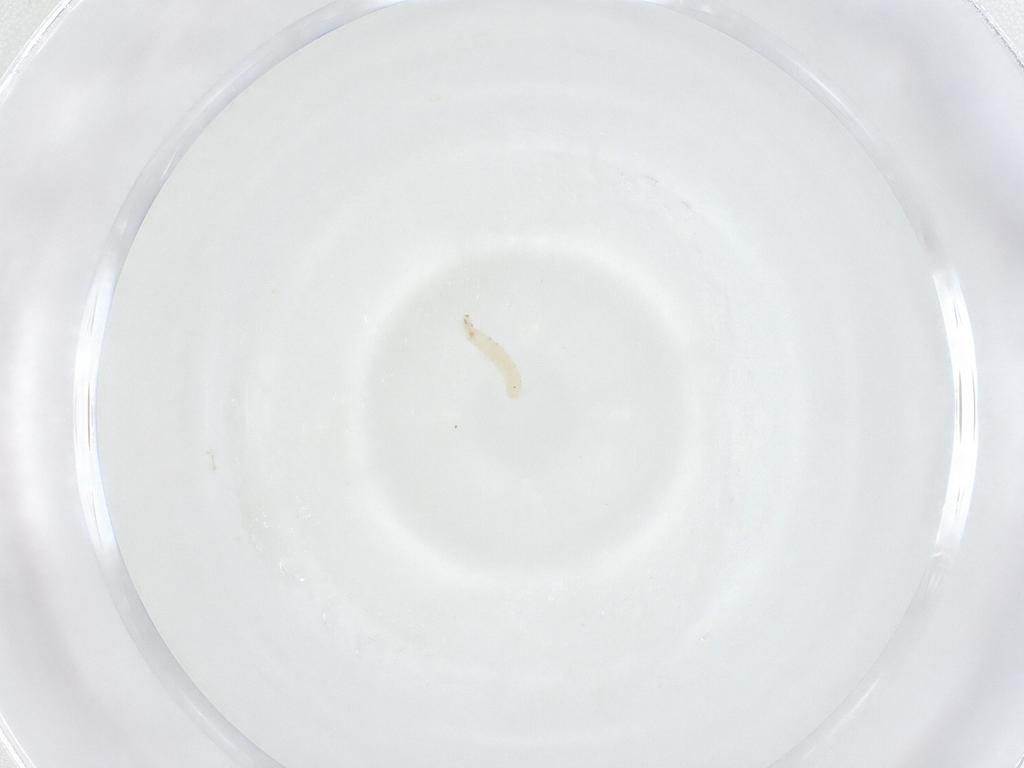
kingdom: Animalia
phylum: Arthropoda
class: Insecta
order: Diptera
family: Sarcophagidae
